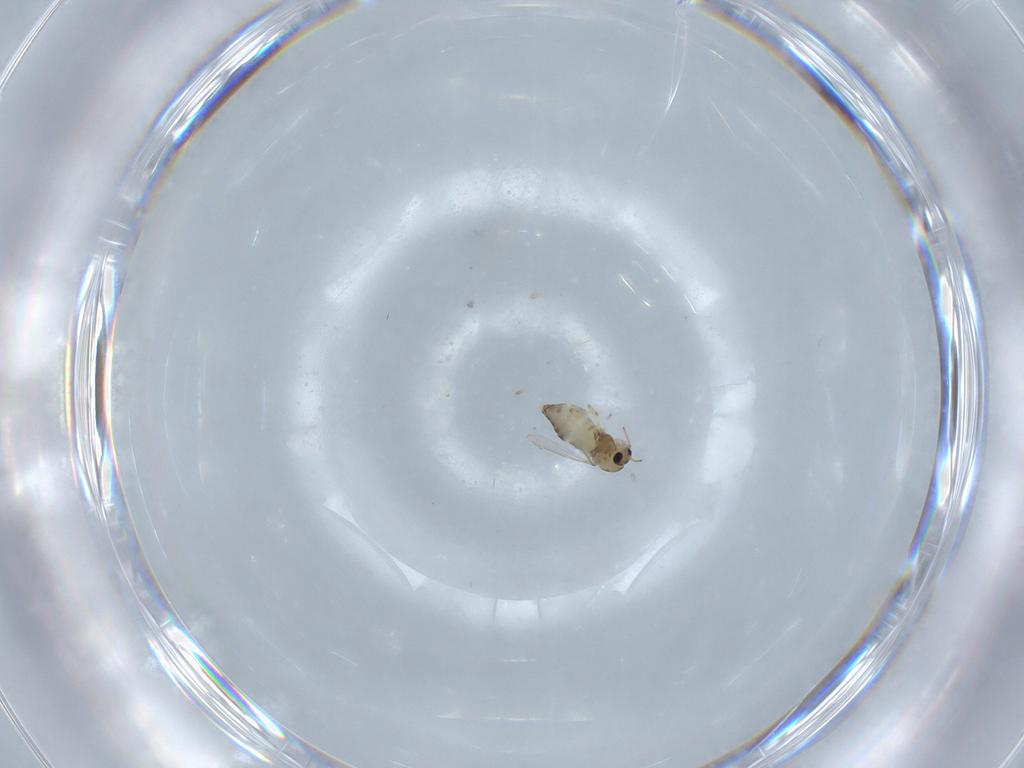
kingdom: Animalia
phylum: Arthropoda
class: Insecta
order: Diptera
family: Chironomidae
